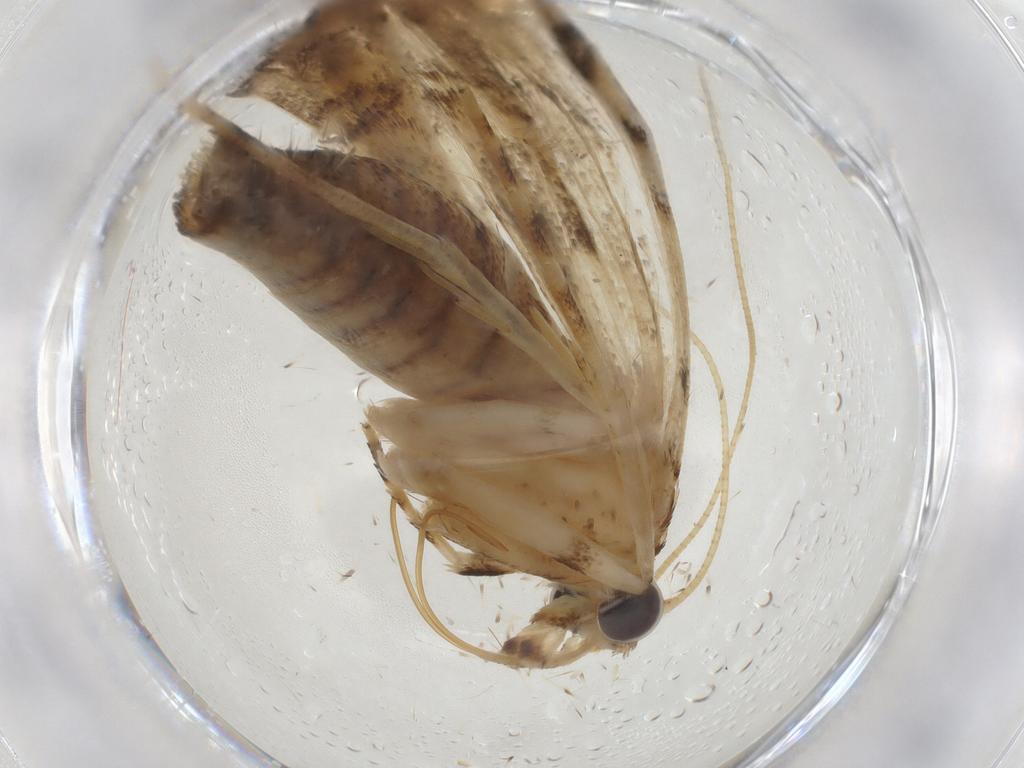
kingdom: Animalia
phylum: Arthropoda
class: Insecta
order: Lepidoptera
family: Crambidae
